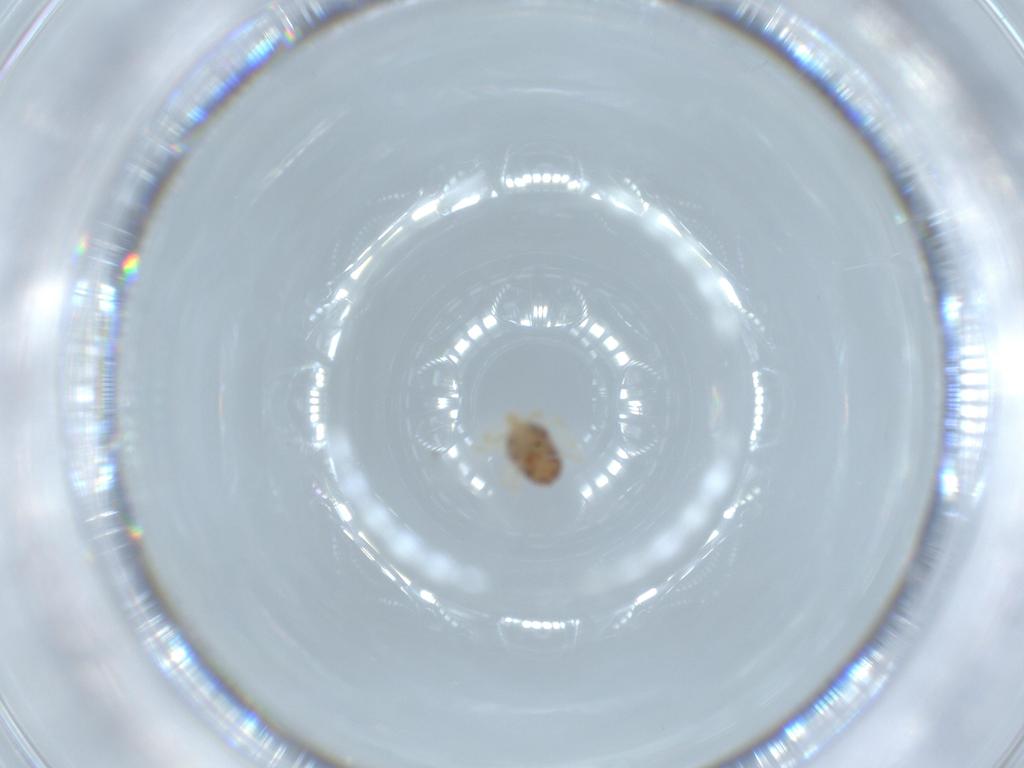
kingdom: Animalia
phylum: Arthropoda
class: Arachnida
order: Trombidiformes
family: Anystidae
